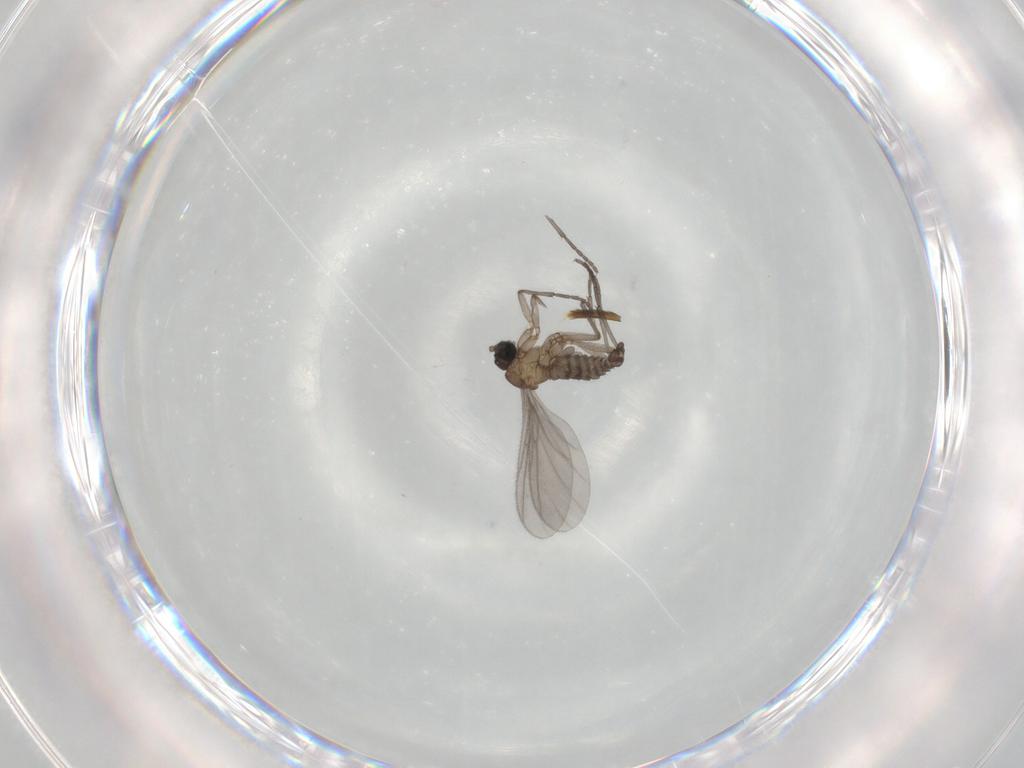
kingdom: Animalia
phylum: Arthropoda
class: Insecta
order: Diptera
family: Sciaridae
